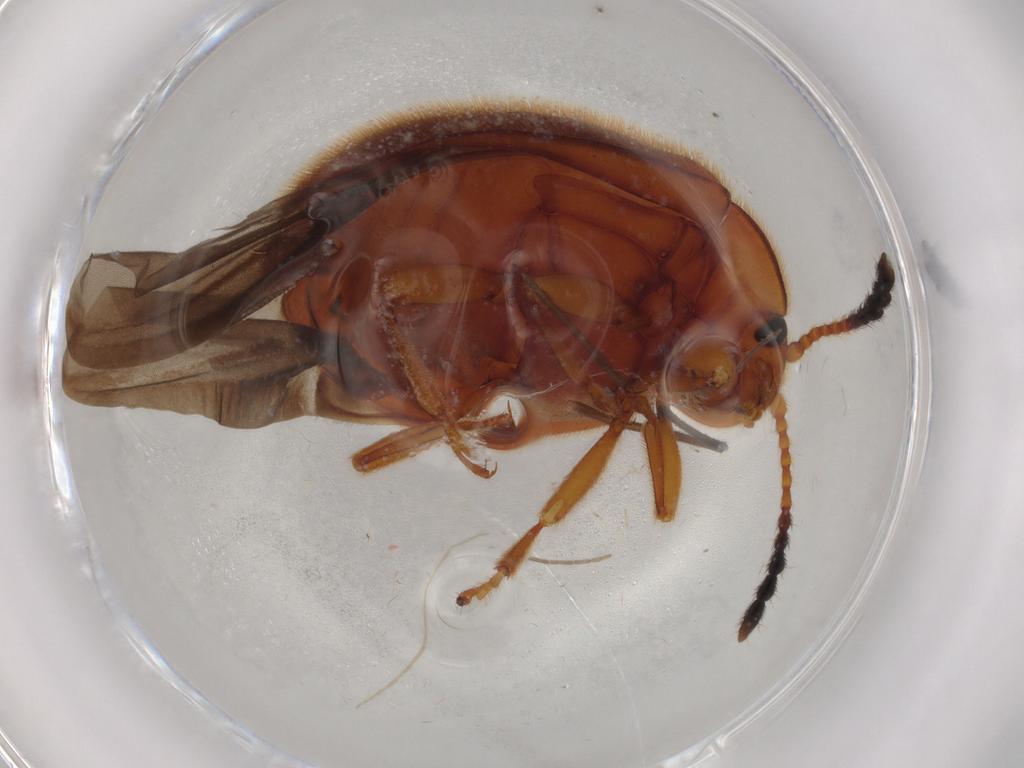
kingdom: Animalia
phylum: Arthropoda
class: Insecta
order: Coleoptera
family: Endomychidae
